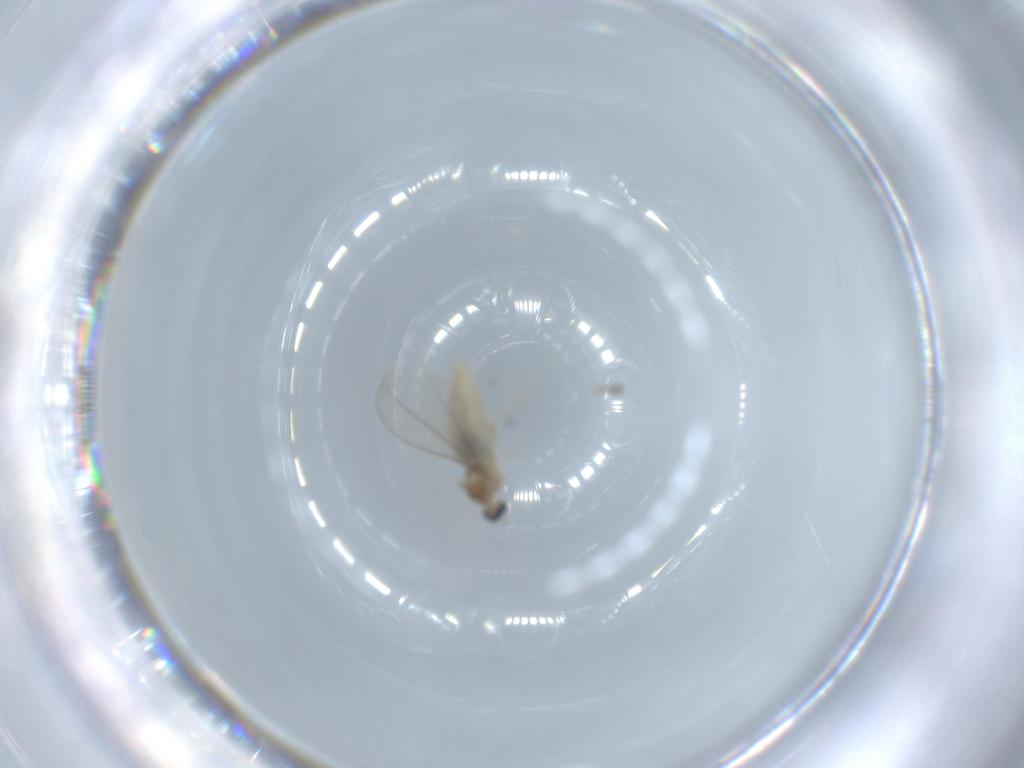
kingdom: Animalia
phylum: Arthropoda
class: Insecta
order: Diptera
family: Cecidomyiidae
